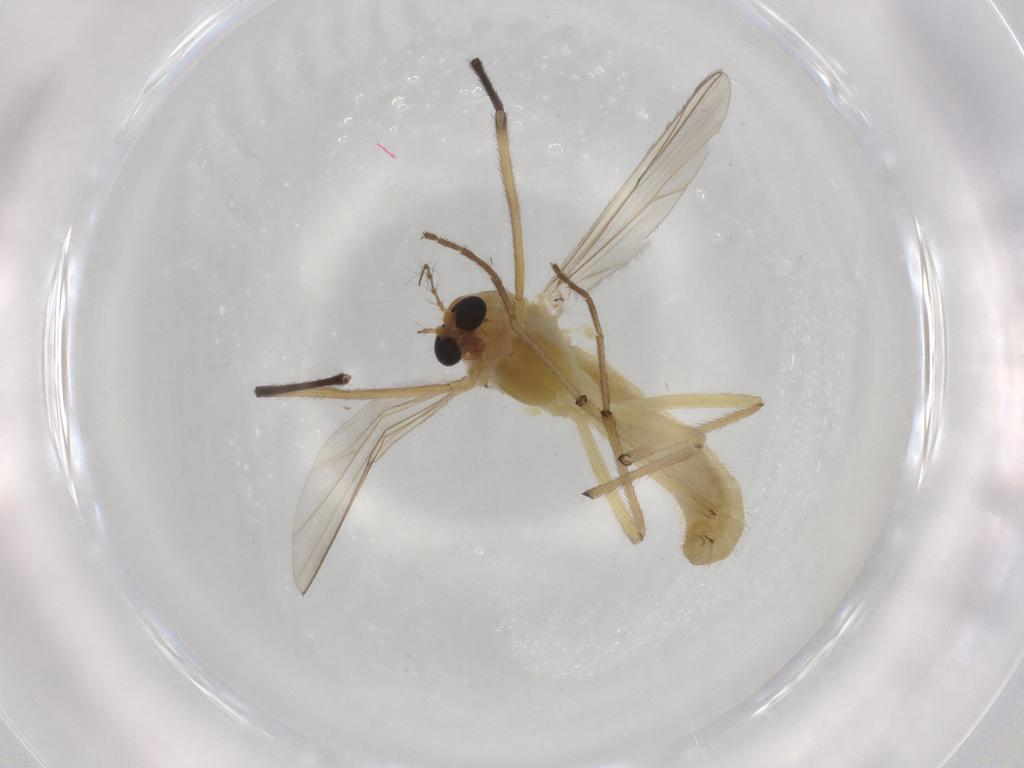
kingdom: Animalia
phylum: Arthropoda
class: Insecta
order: Diptera
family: Chironomidae
